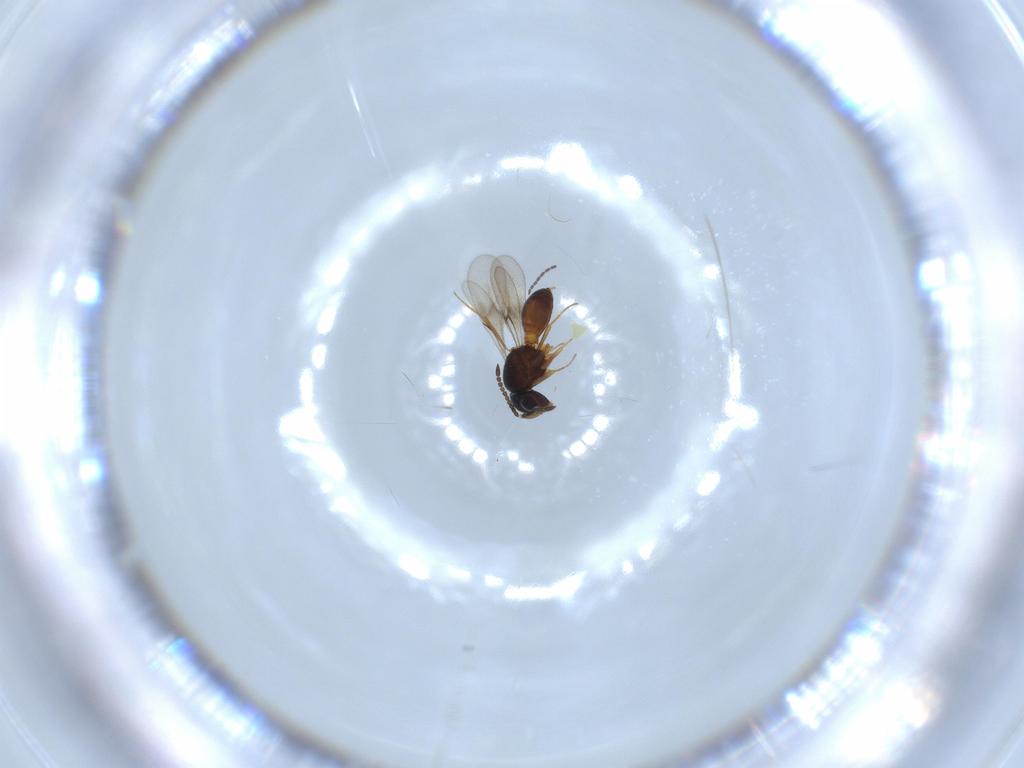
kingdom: Animalia
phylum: Arthropoda
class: Arachnida
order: Araneae
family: Pholcidae
